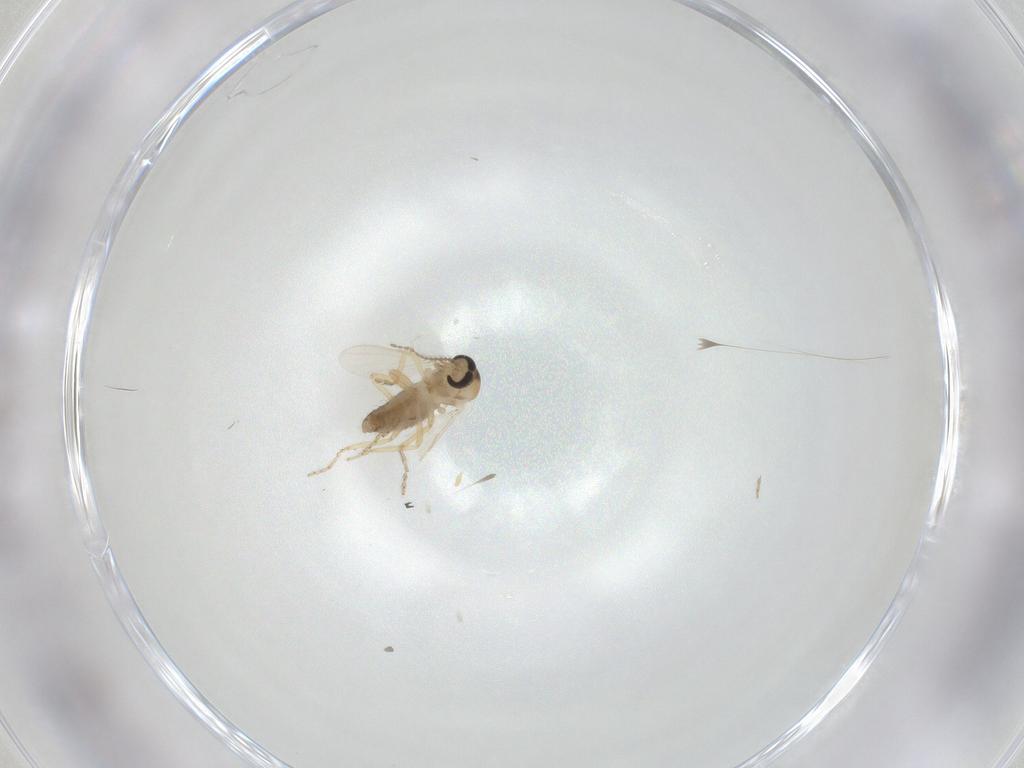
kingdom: Animalia
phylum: Arthropoda
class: Insecta
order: Diptera
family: Ceratopogonidae
